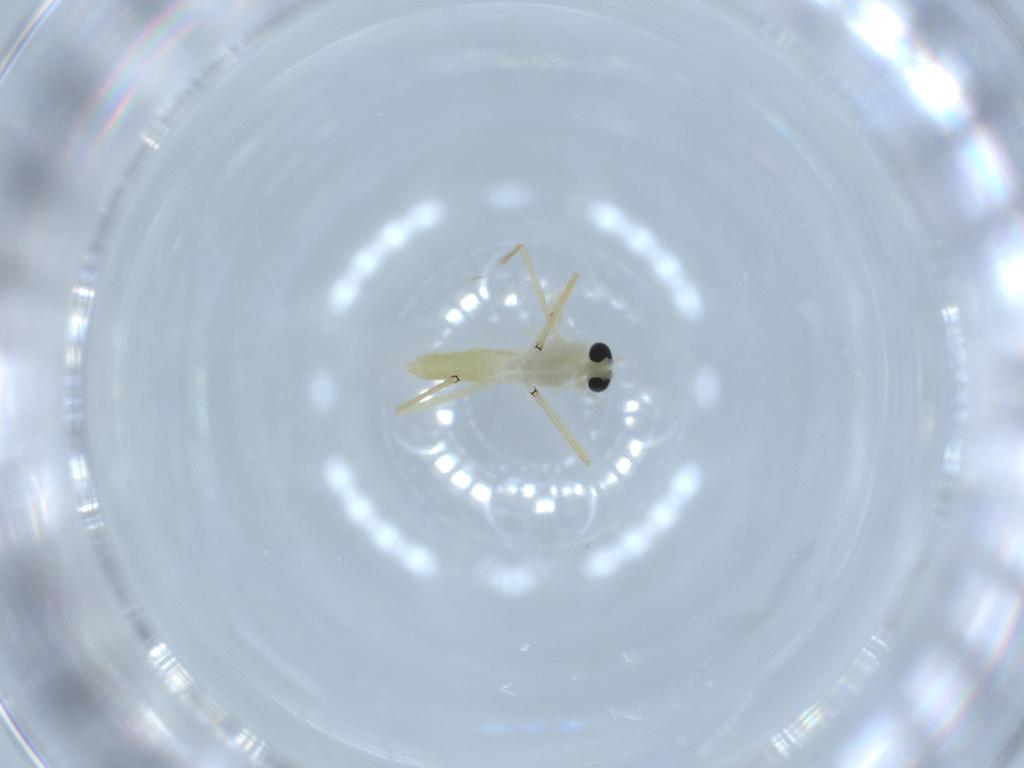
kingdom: Animalia
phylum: Arthropoda
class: Insecta
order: Diptera
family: Chironomidae
